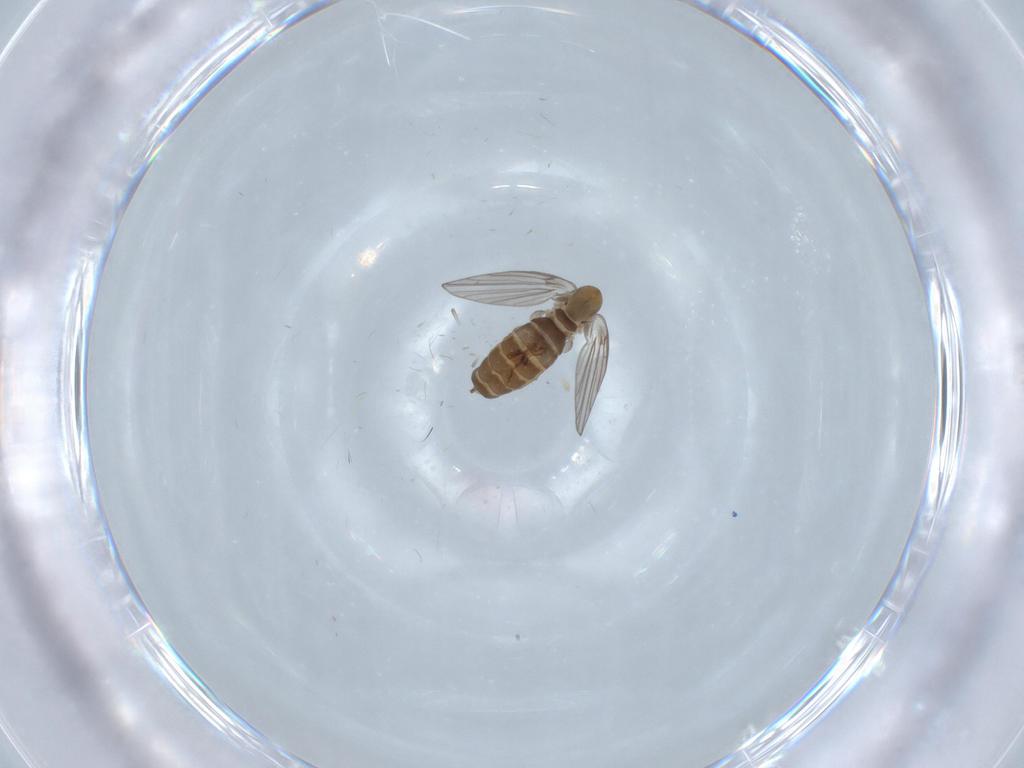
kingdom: Animalia
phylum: Arthropoda
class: Insecta
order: Diptera
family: Psychodidae
